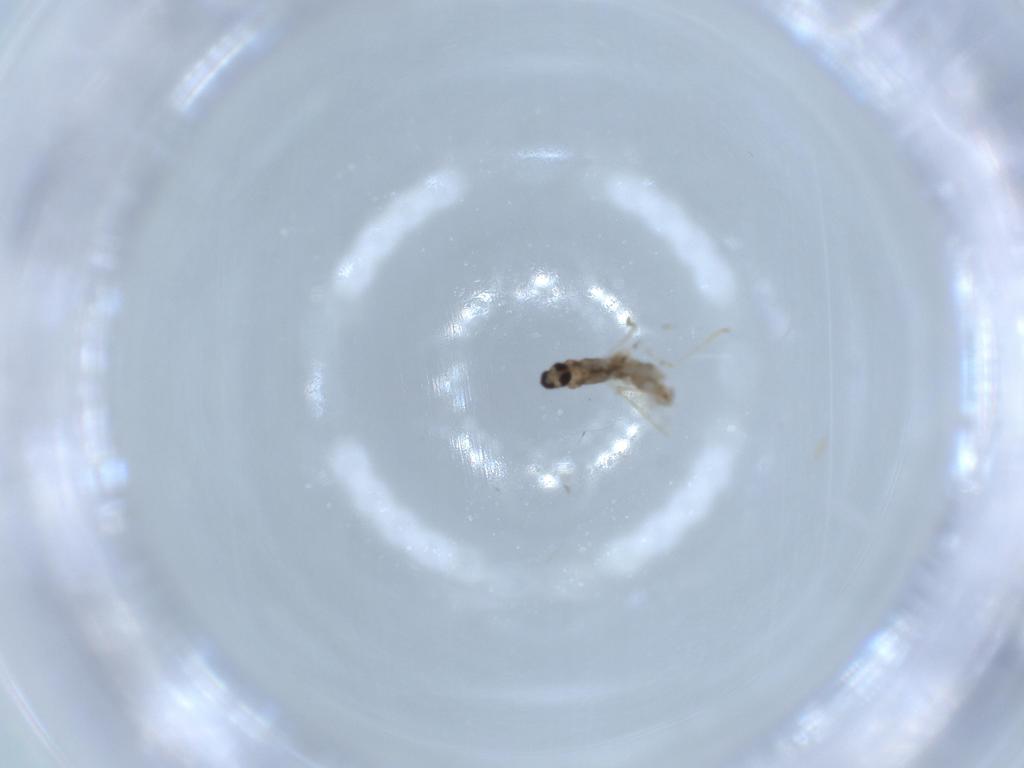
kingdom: Animalia
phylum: Arthropoda
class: Insecta
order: Diptera
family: Cecidomyiidae
